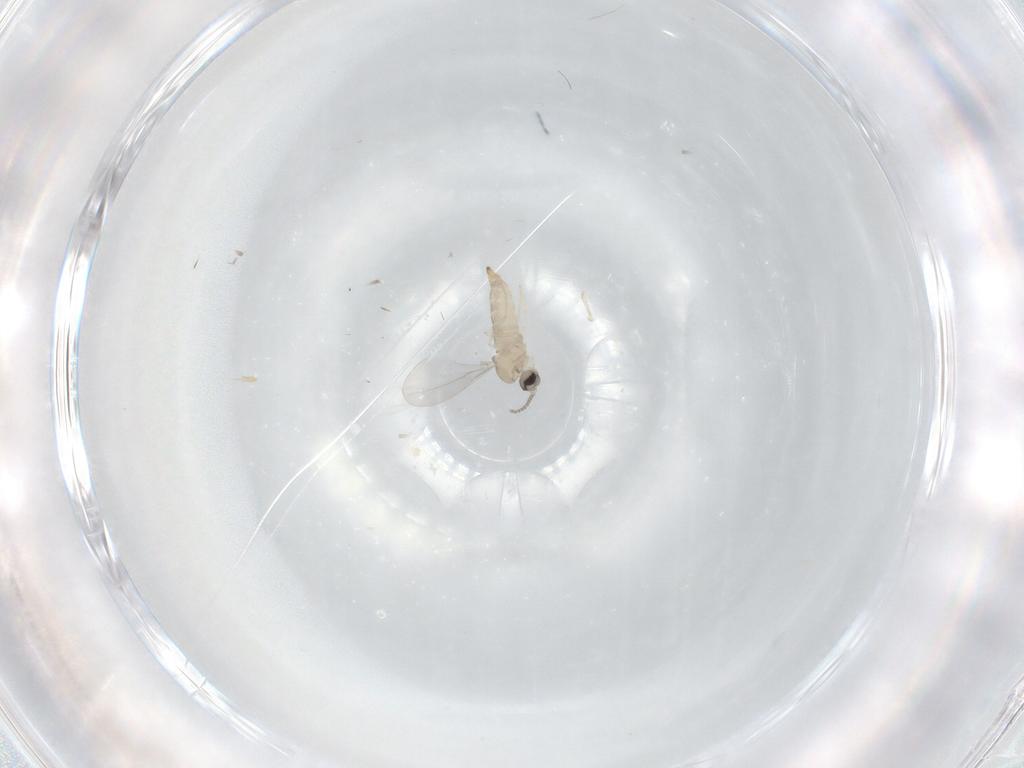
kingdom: Animalia
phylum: Arthropoda
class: Insecta
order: Diptera
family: Cecidomyiidae
